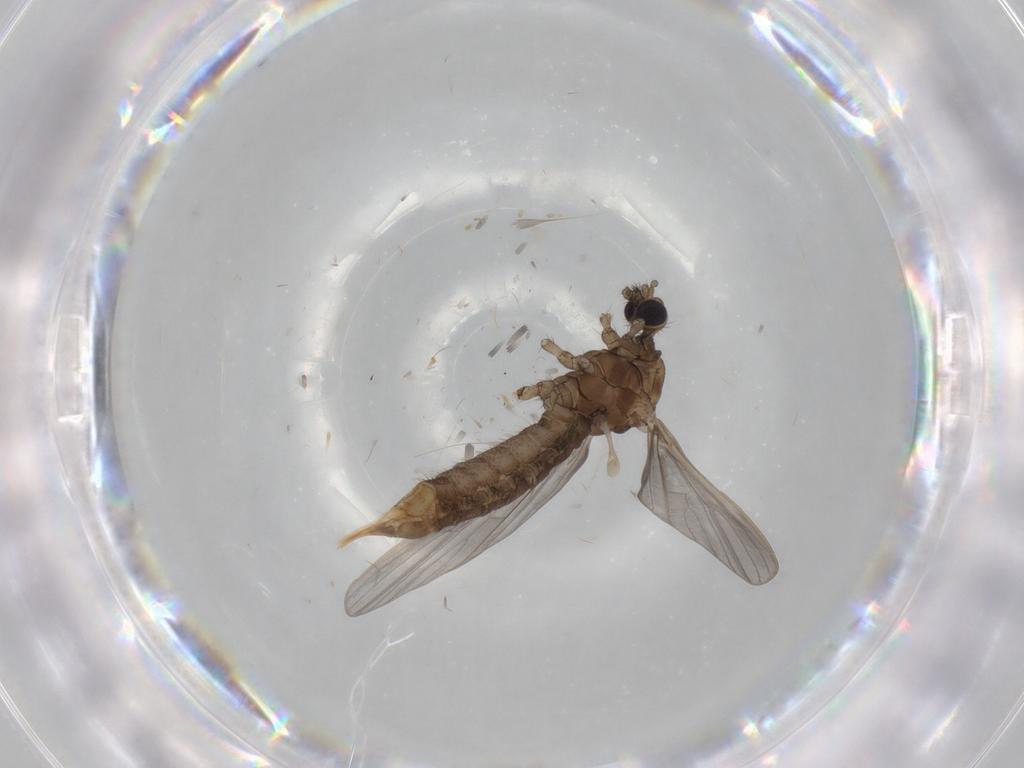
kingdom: Animalia
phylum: Arthropoda
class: Insecta
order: Diptera
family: Limoniidae
